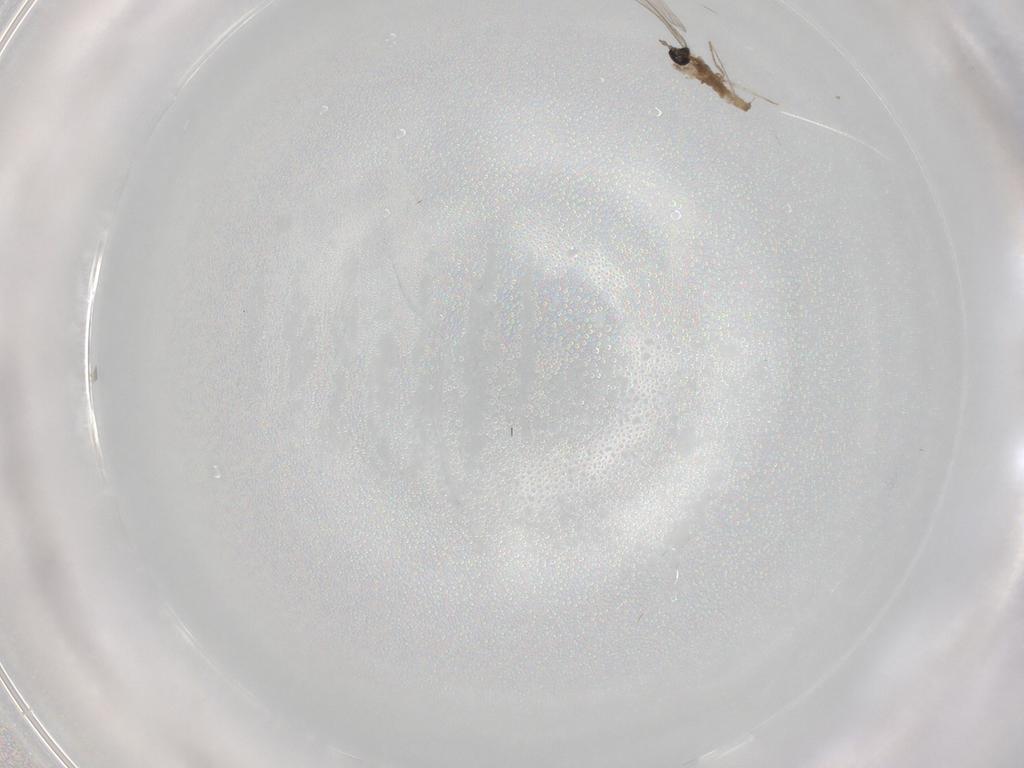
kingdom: Animalia
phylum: Arthropoda
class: Insecta
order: Diptera
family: Cecidomyiidae
